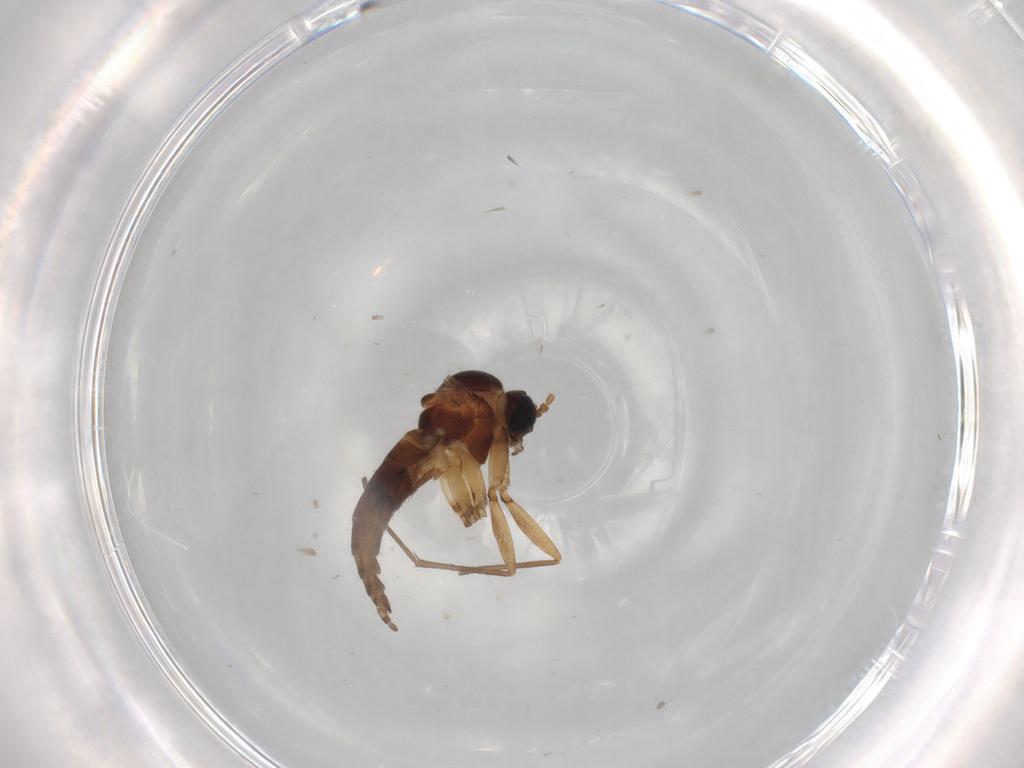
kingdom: Animalia
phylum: Arthropoda
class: Insecta
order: Diptera
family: Sciaridae
